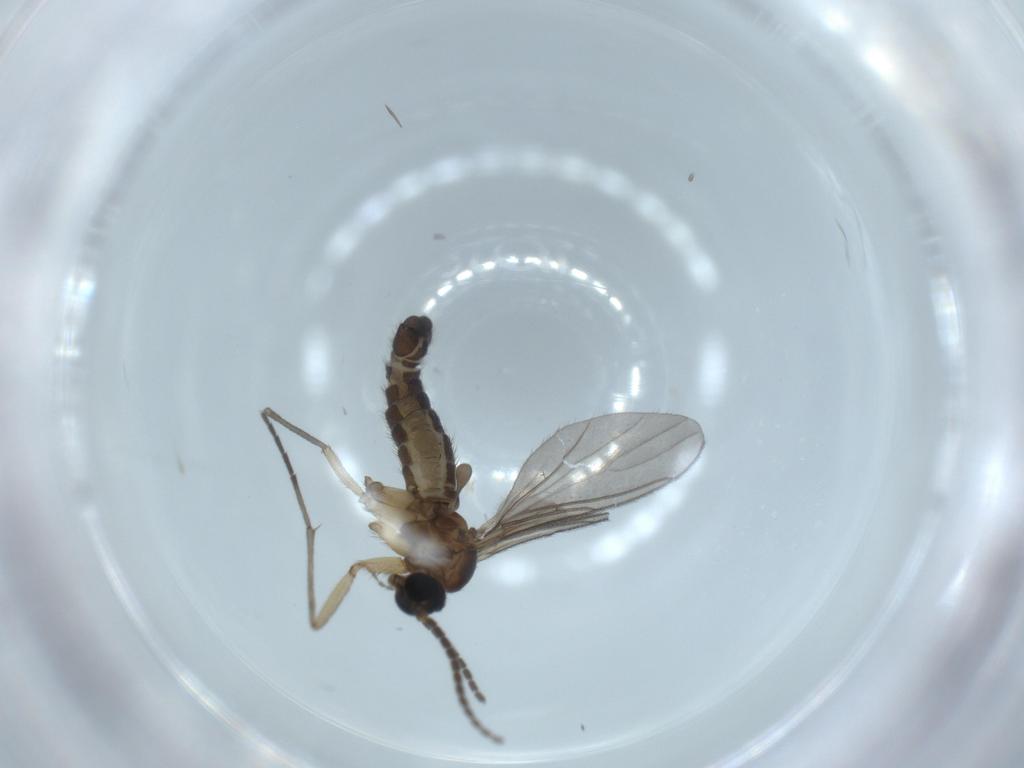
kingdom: Animalia
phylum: Arthropoda
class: Insecta
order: Diptera
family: Sciaridae
